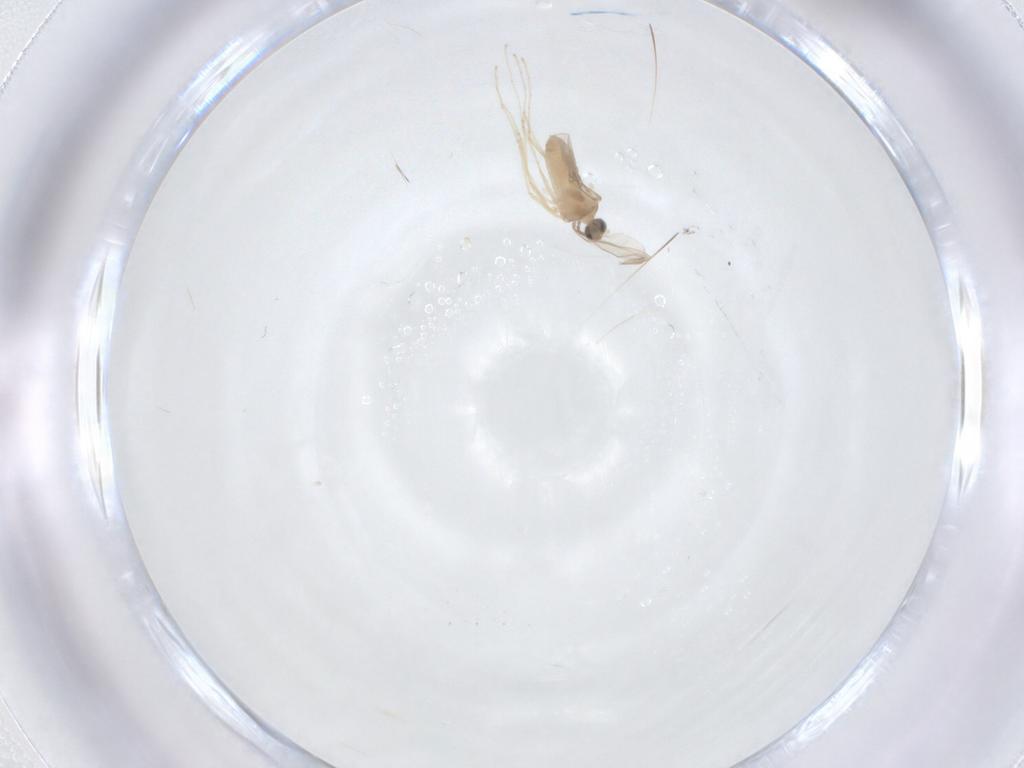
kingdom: Animalia
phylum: Arthropoda
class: Insecta
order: Diptera
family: Cecidomyiidae
